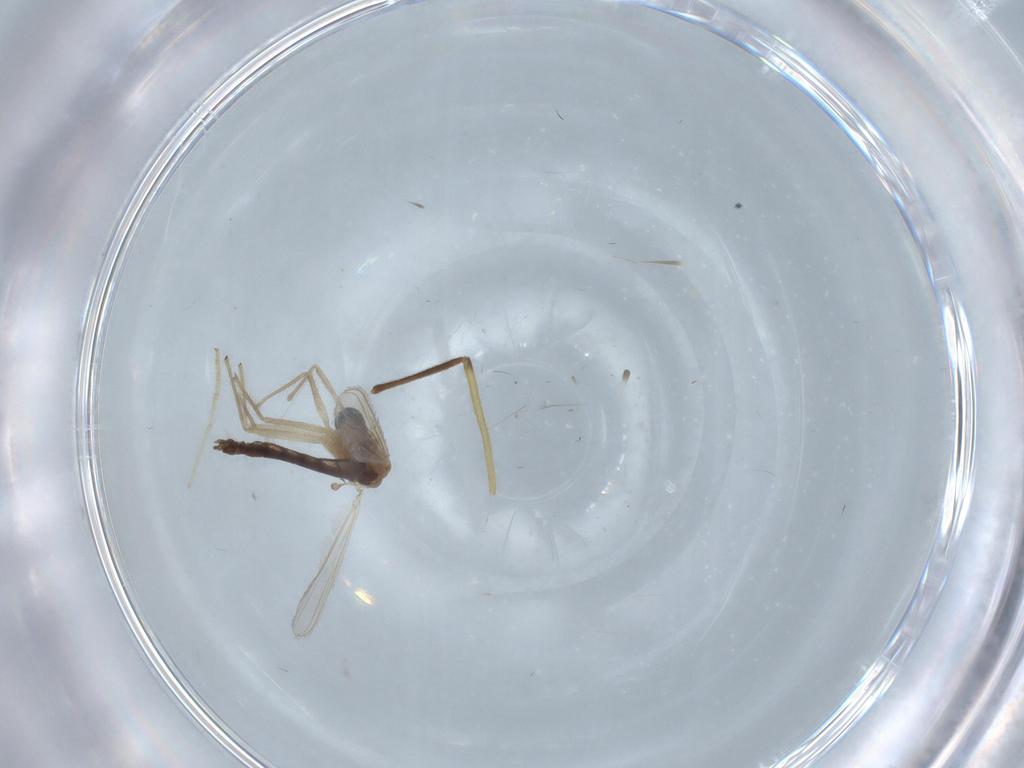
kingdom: Animalia
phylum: Arthropoda
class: Insecta
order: Diptera
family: Chironomidae
